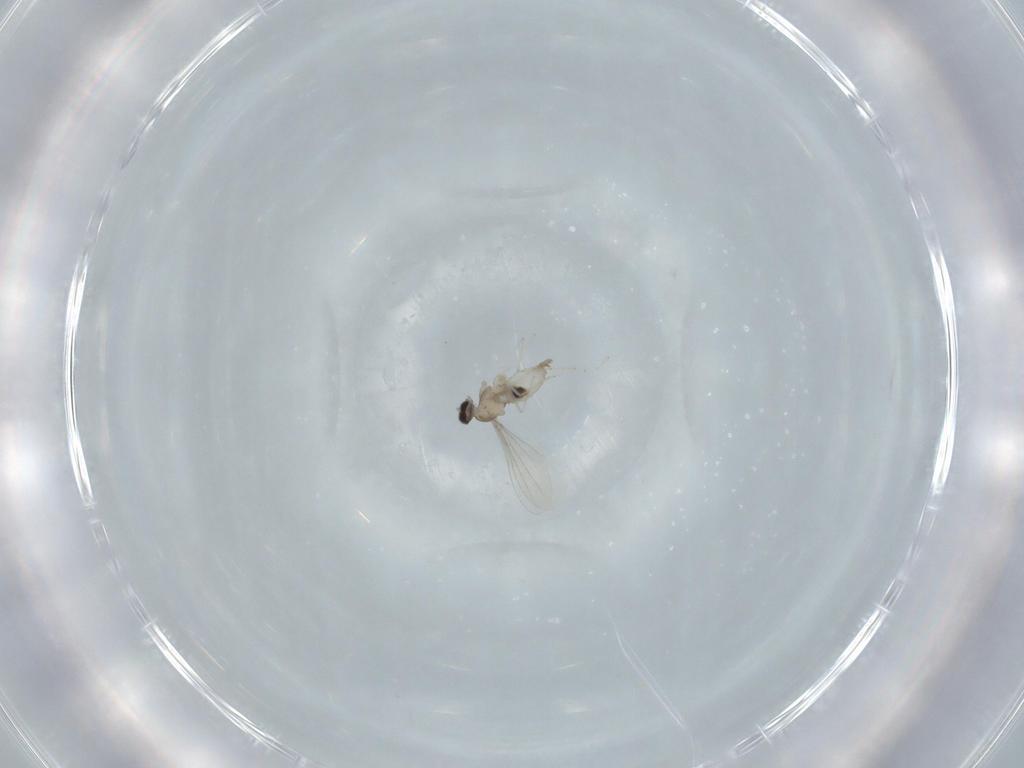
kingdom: Animalia
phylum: Arthropoda
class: Insecta
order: Diptera
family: Cecidomyiidae
